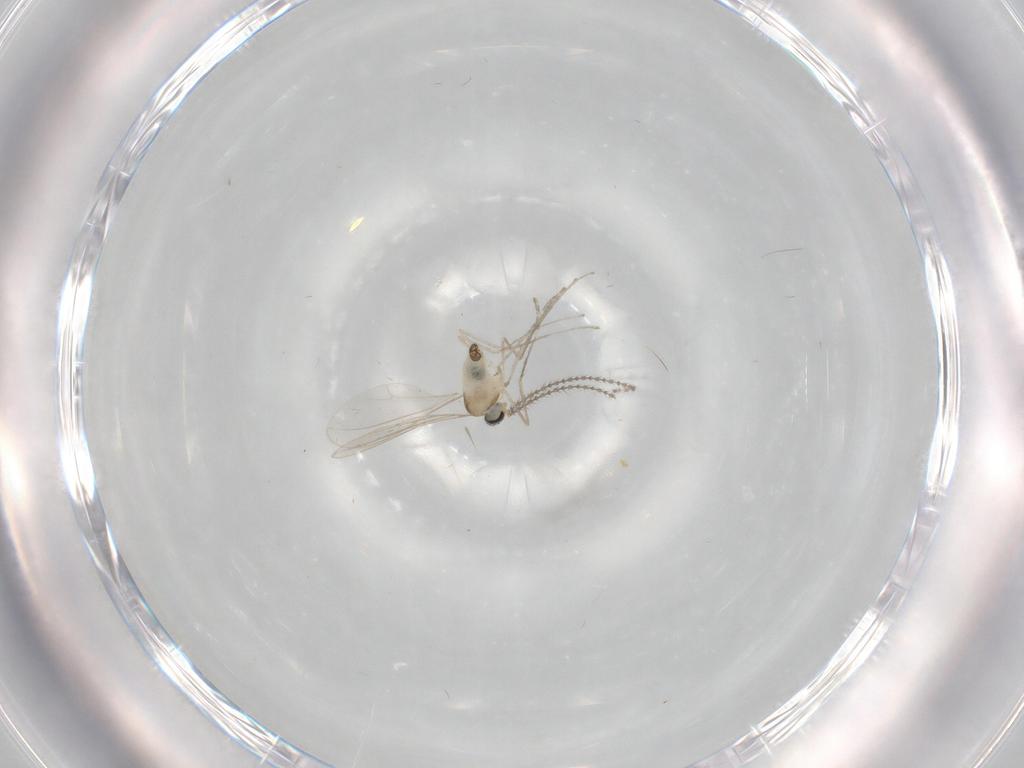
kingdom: Animalia
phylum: Arthropoda
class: Insecta
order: Diptera
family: Cecidomyiidae
